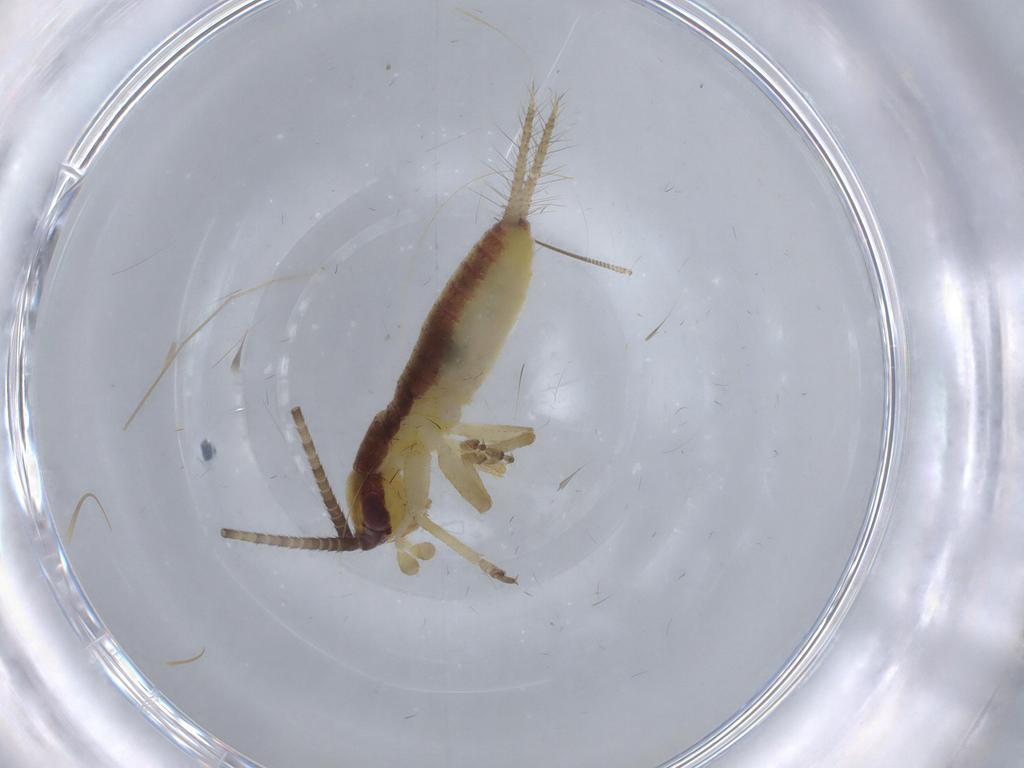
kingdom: Animalia
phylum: Arthropoda
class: Insecta
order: Orthoptera
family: Gryllidae
